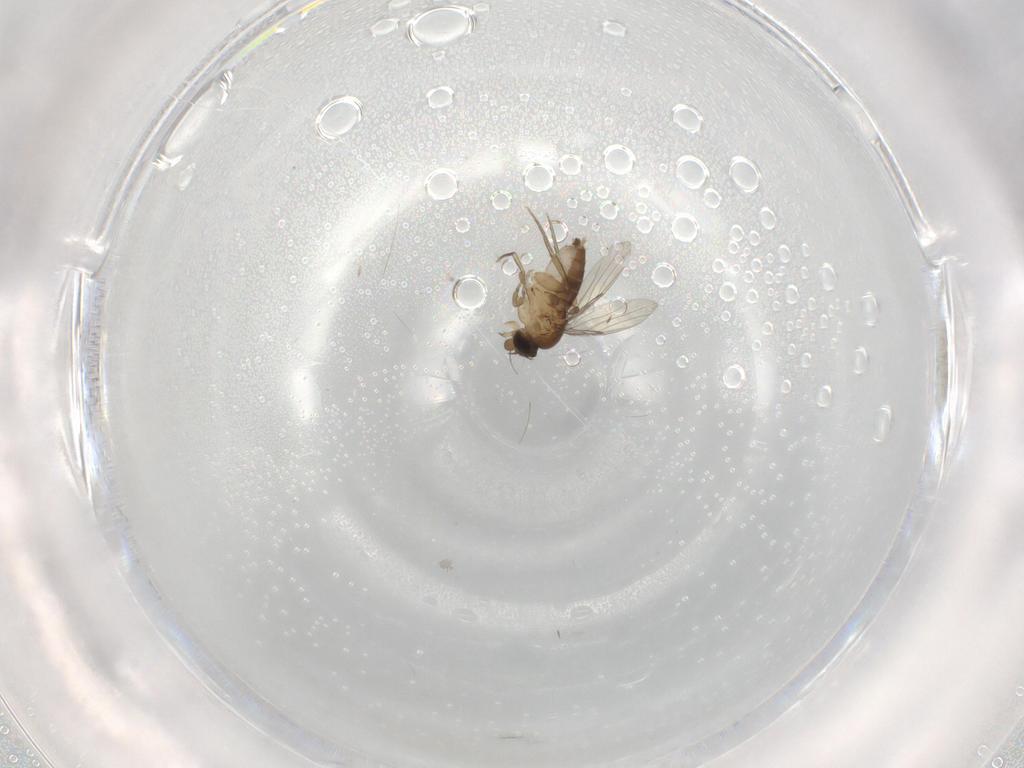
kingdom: Animalia
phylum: Arthropoda
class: Insecta
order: Diptera
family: Phoridae
